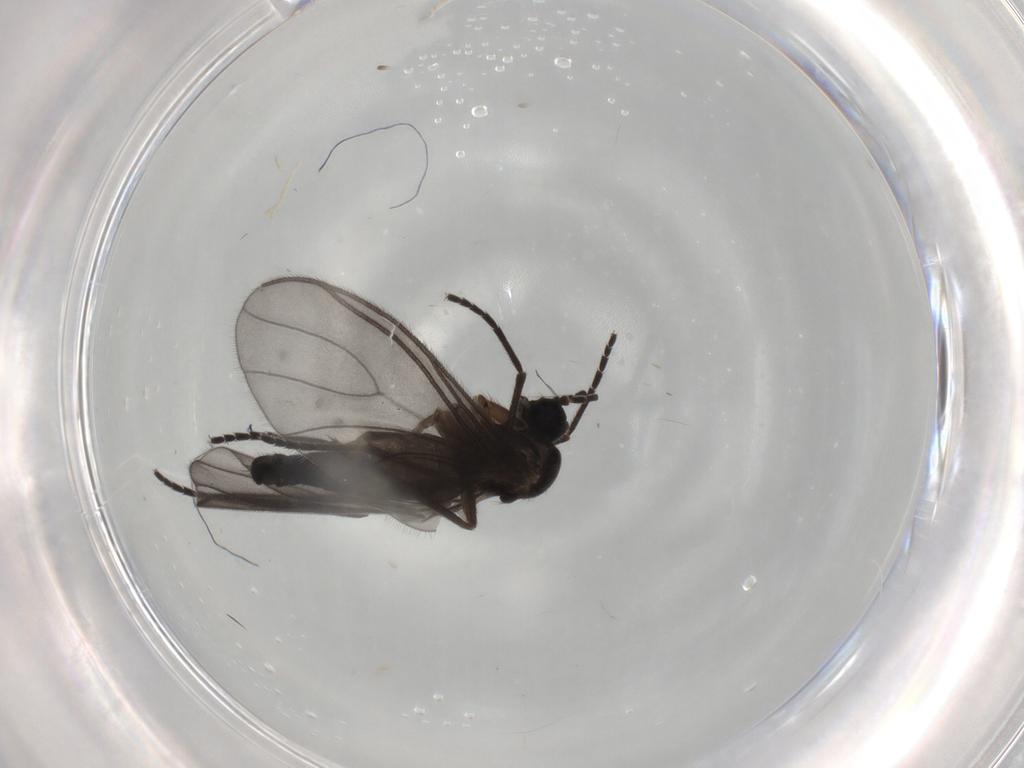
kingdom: Animalia
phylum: Arthropoda
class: Insecta
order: Diptera
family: Sciaridae
